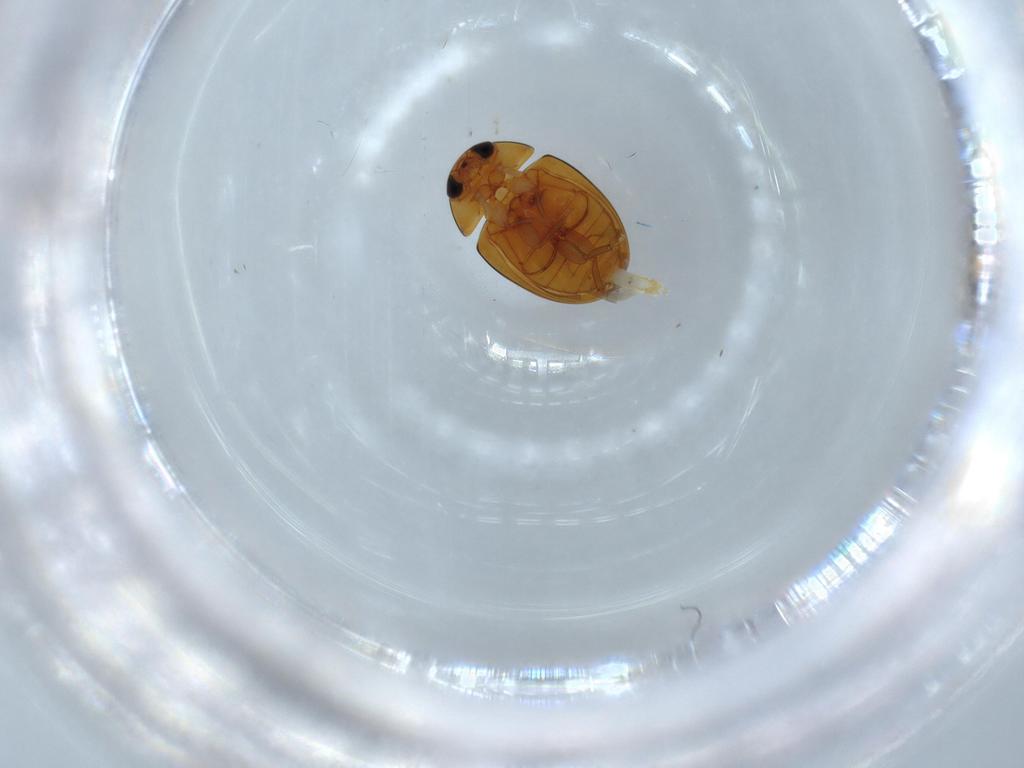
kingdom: Animalia
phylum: Arthropoda
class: Insecta
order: Coleoptera
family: Phalacridae
